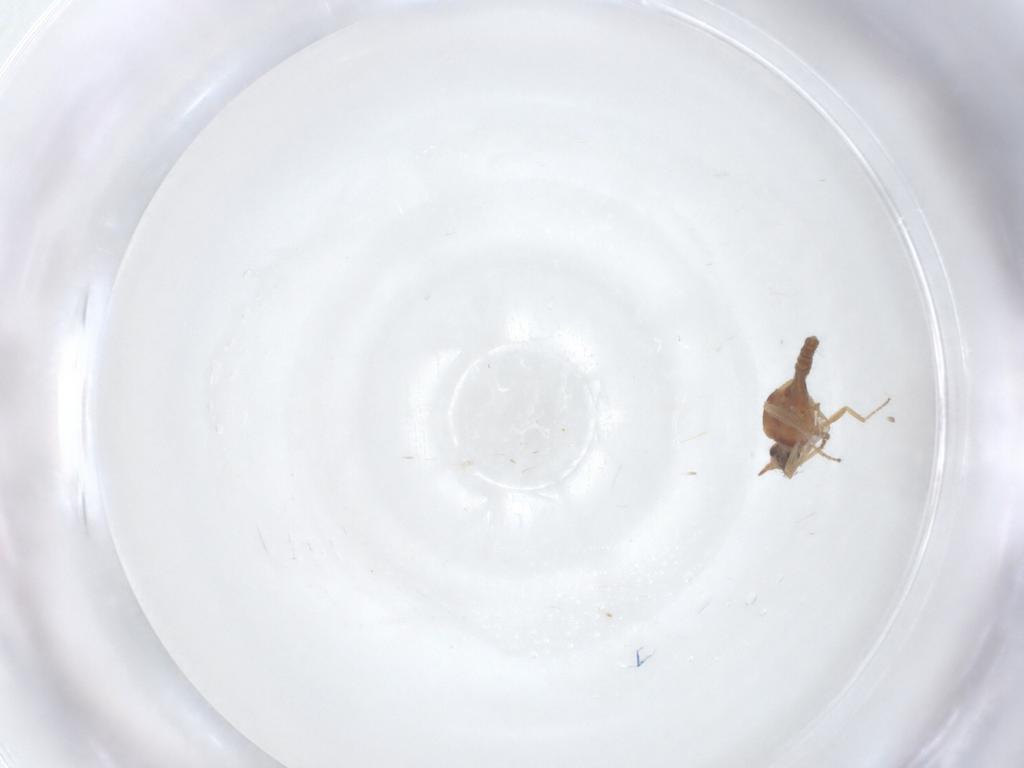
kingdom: Animalia
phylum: Arthropoda
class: Insecta
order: Diptera
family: Ceratopogonidae
